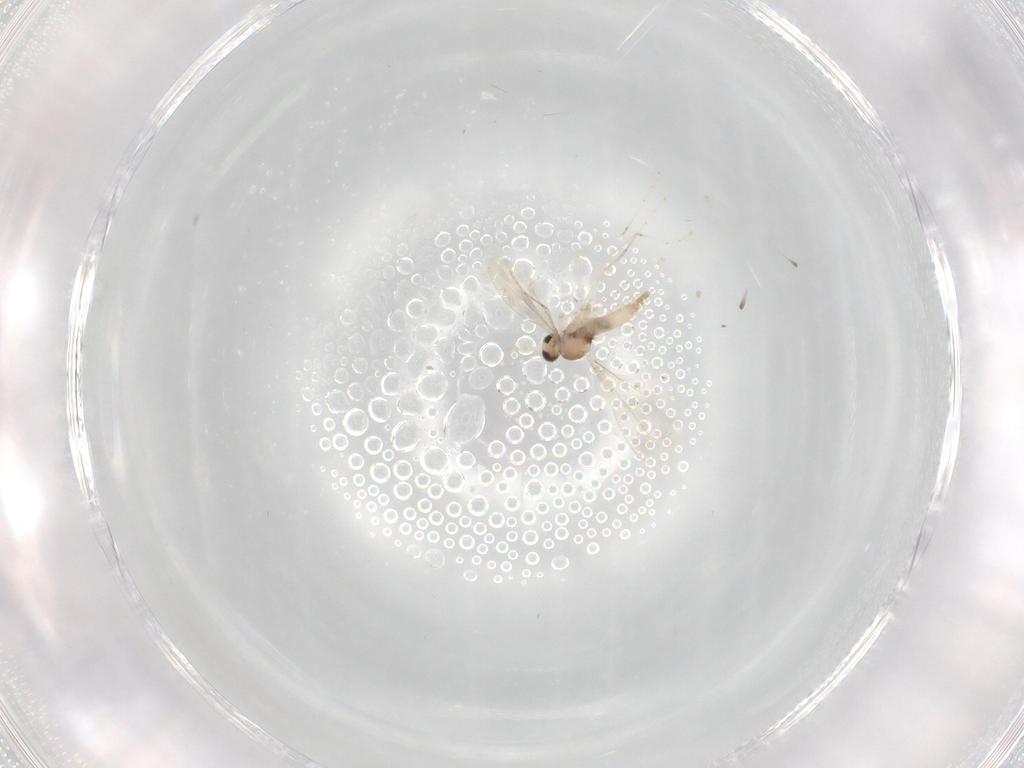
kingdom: Animalia
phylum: Arthropoda
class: Insecta
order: Diptera
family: Cecidomyiidae
